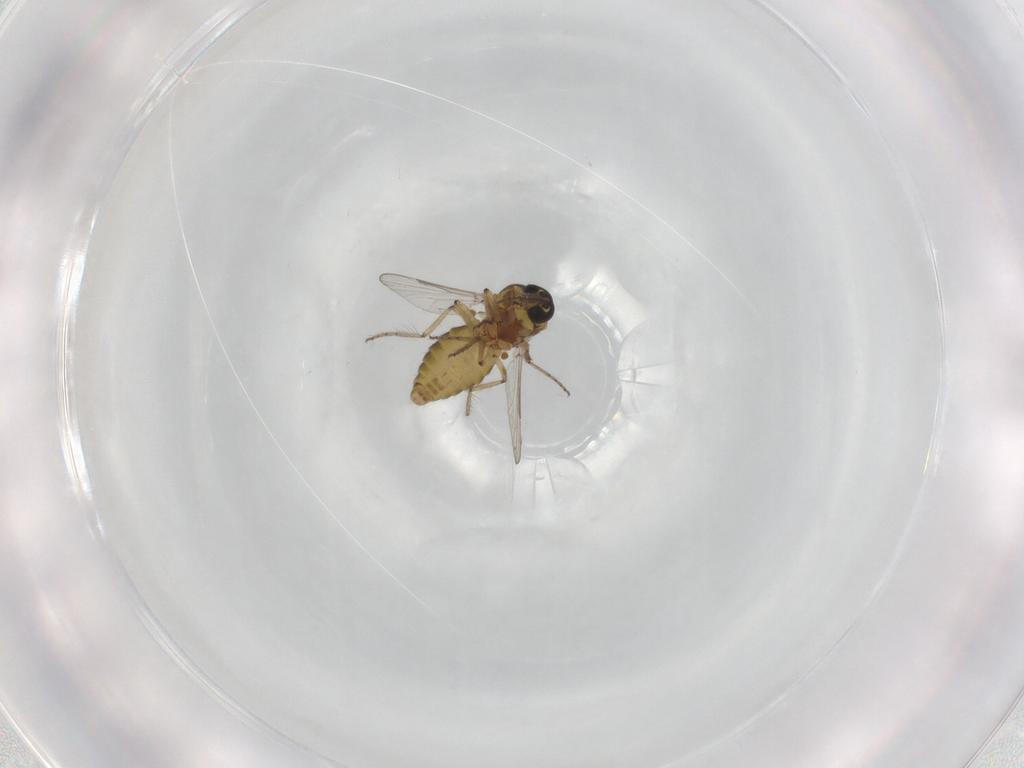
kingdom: Animalia
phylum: Arthropoda
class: Insecta
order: Diptera
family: Ceratopogonidae
